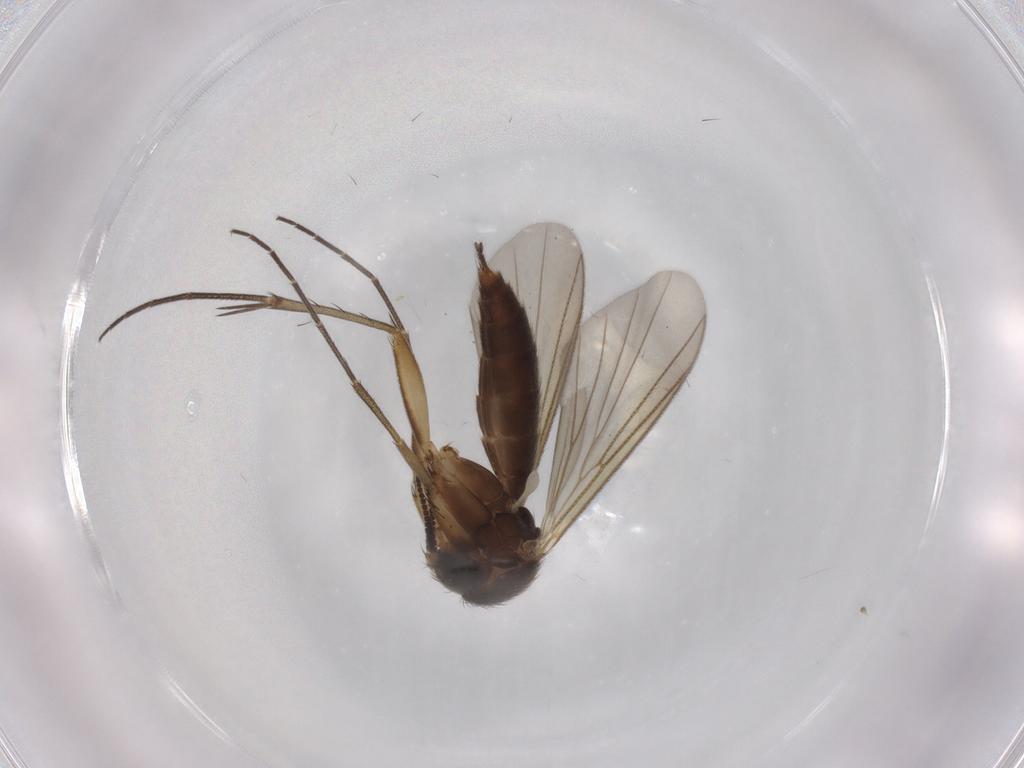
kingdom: Animalia
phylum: Arthropoda
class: Insecta
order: Diptera
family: Mycetophilidae
